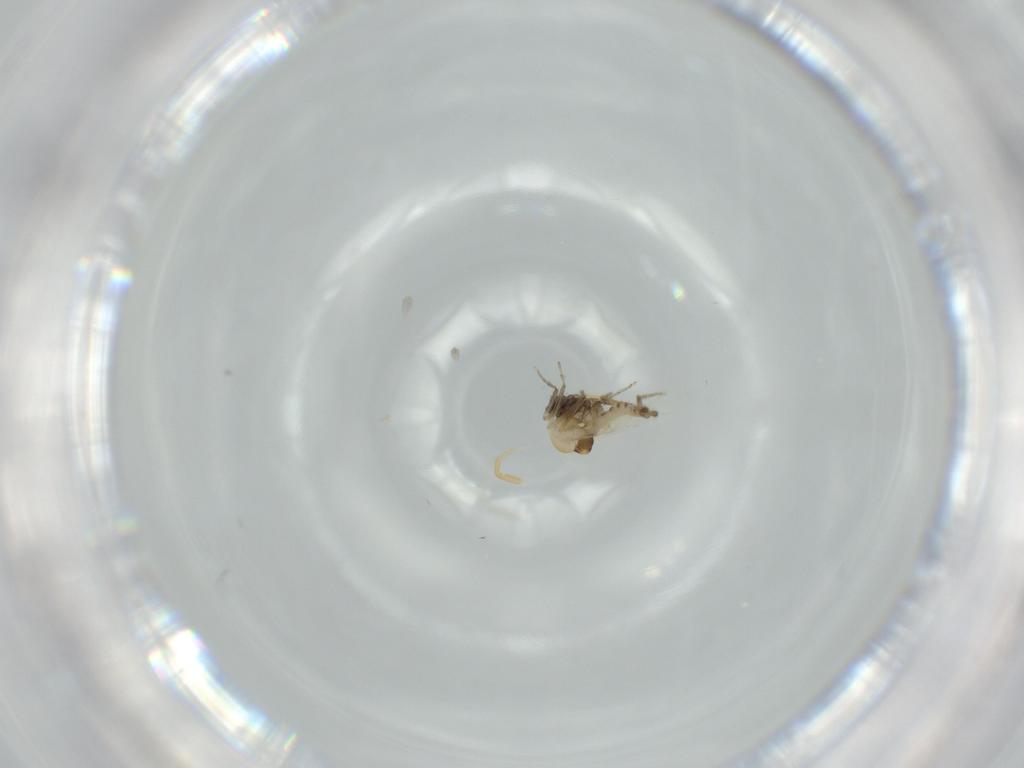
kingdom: Animalia
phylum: Arthropoda
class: Insecta
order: Diptera
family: Ceratopogonidae
